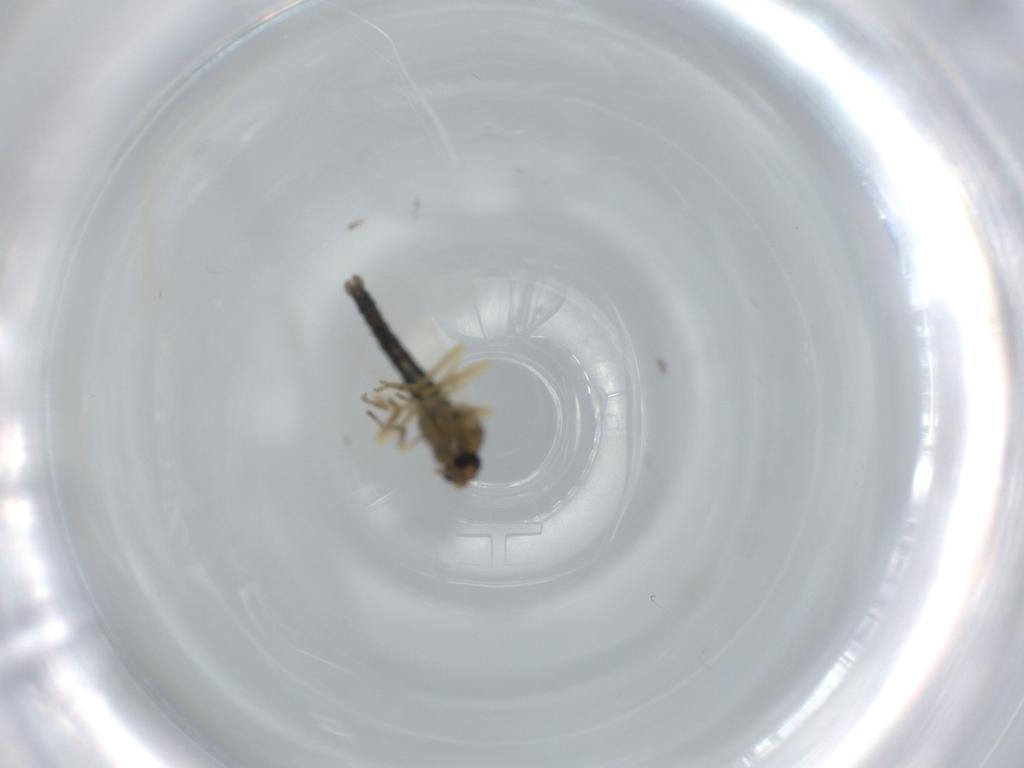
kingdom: Animalia
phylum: Arthropoda
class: Insecta
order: Diptera
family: Ceratopogonidae
